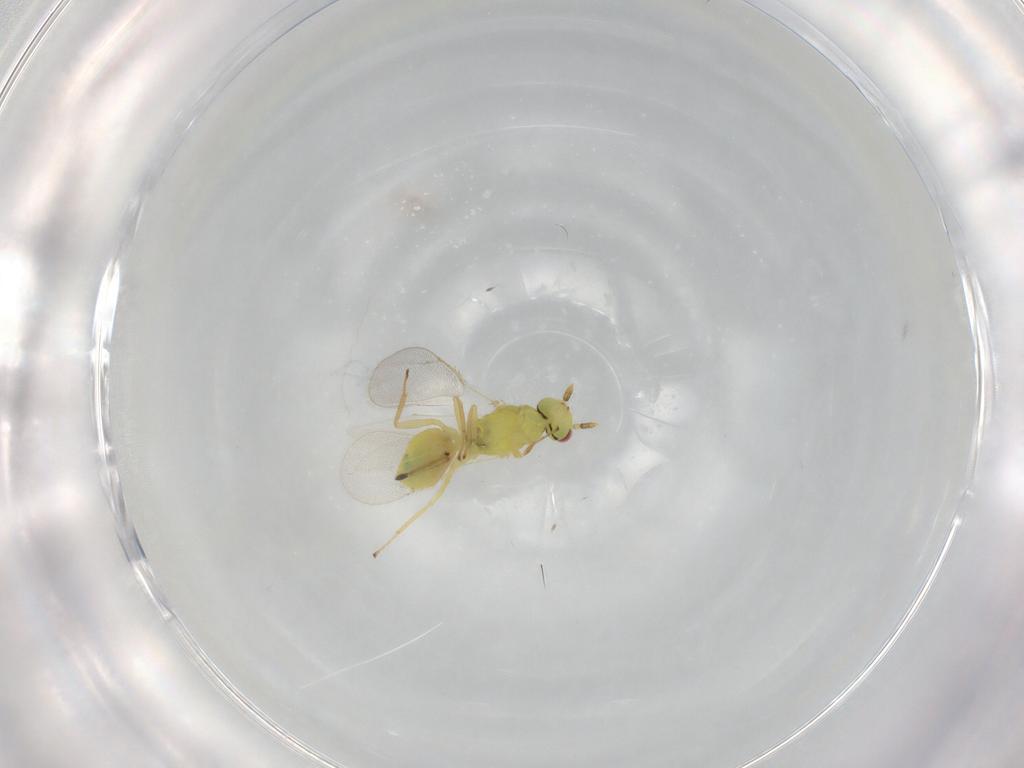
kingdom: Animalia
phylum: Arthropoda
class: Insecta
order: Hymenoptera
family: Eulophidae
